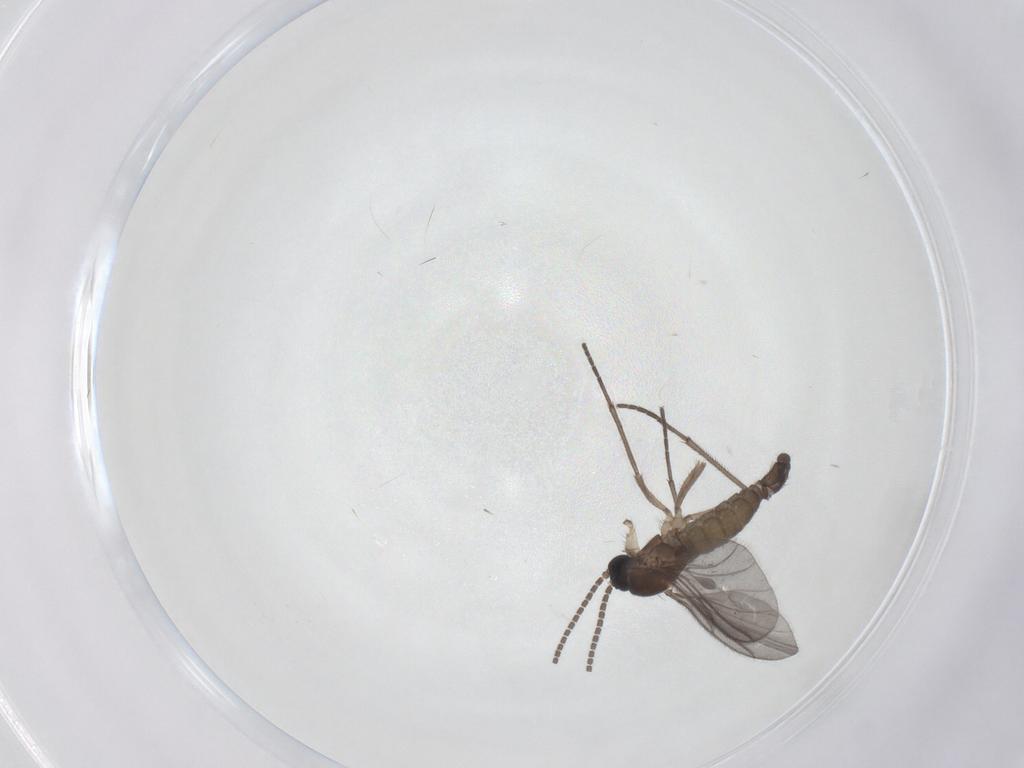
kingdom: Animalia
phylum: Arthropoda
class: Insecta
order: Diptera
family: Sciaridae
